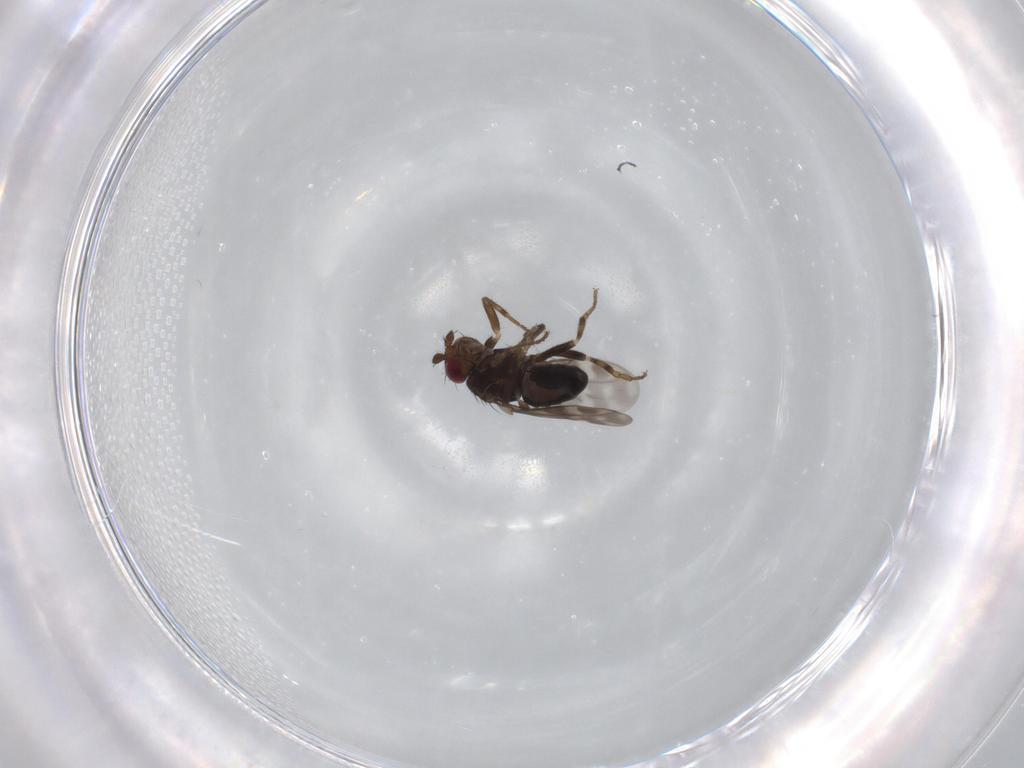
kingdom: Animalia
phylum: Arthropoda
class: Insecta
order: Diptera
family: Sphaeroceridae
